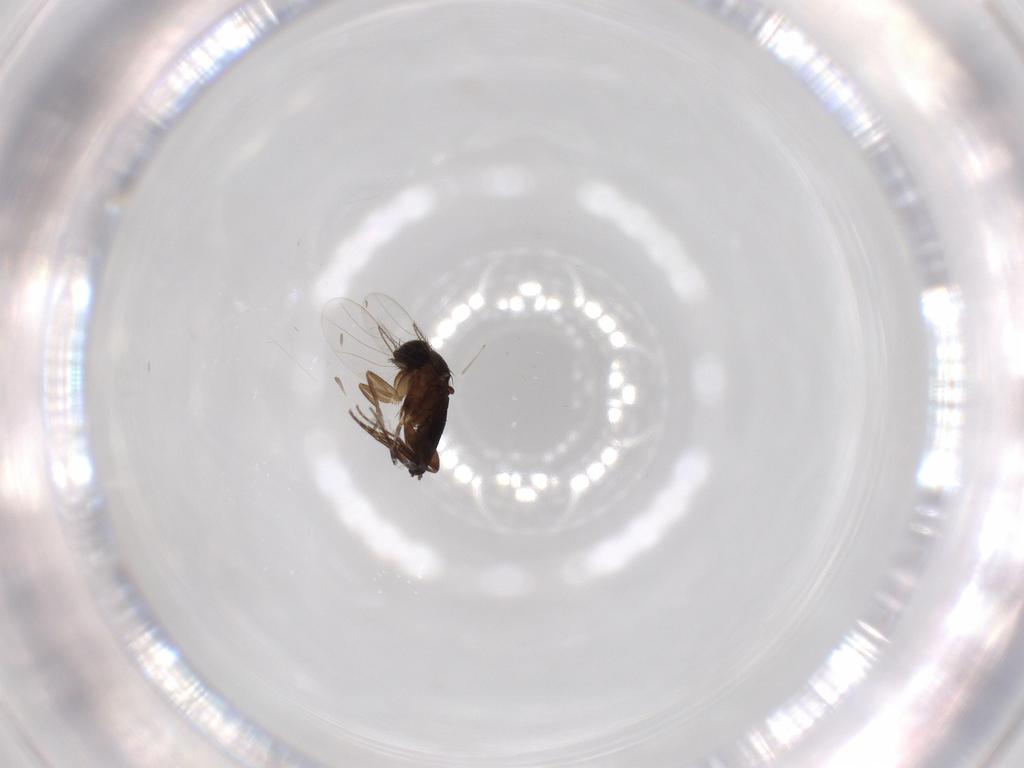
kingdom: Animalia
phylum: Arthropoda
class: Insecta
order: Diptera
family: Phoridae
